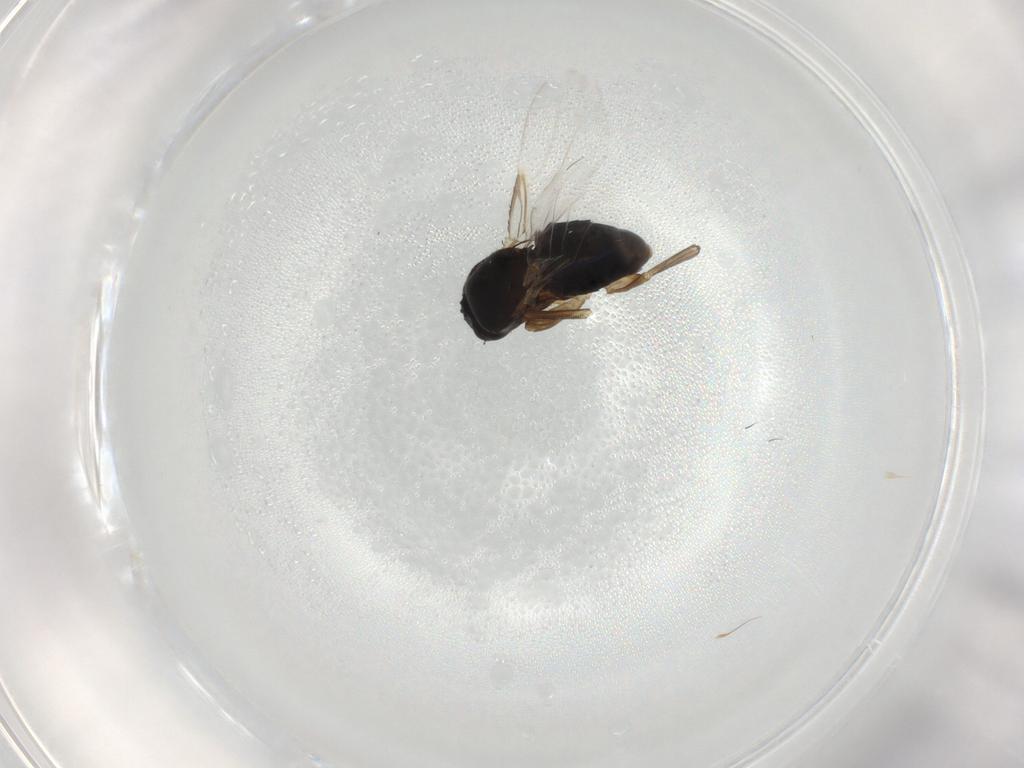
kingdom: Animalia
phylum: Arthropoda
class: Insecta
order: Diptera
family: Phoridae
